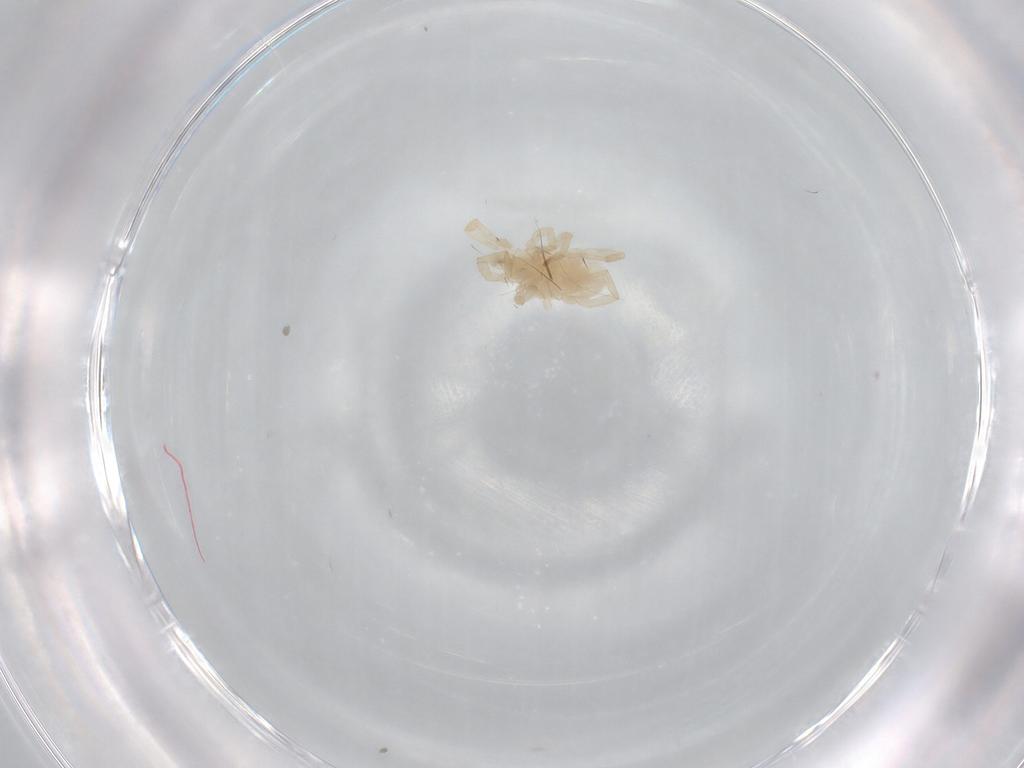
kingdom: Animalia
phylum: Arthropoda
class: Arachnida
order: Trombidiformes
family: Erythraeidae
